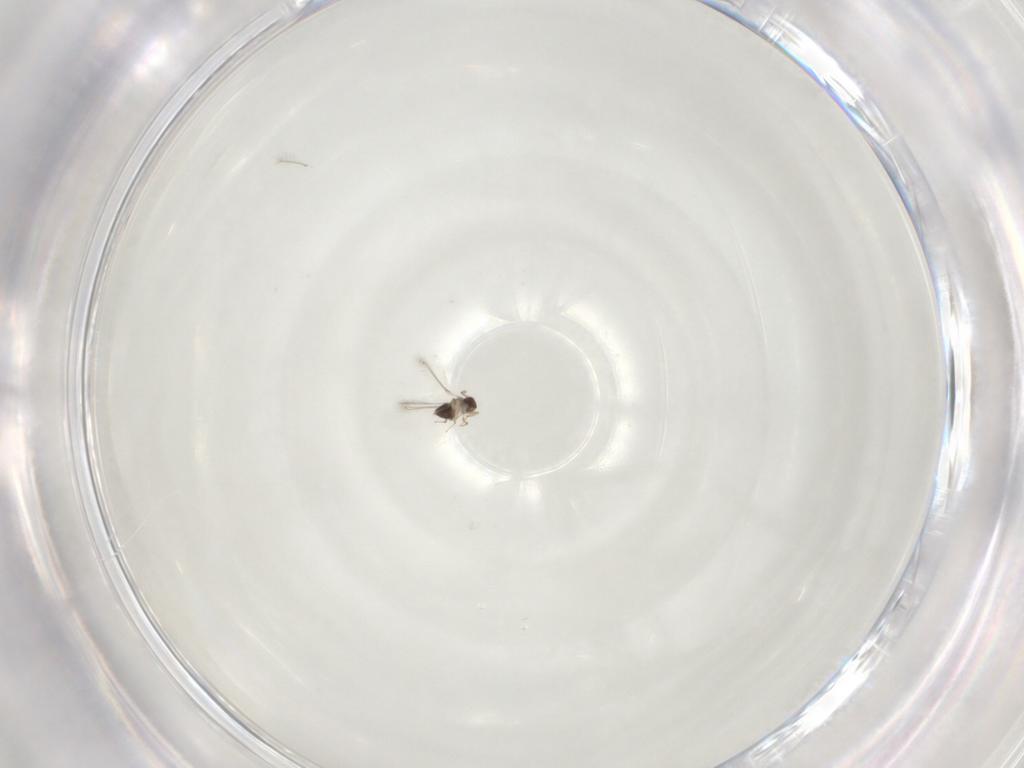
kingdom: Animalia
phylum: Arthropoda
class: Insecta
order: Hymenoptera
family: Mymaridae
